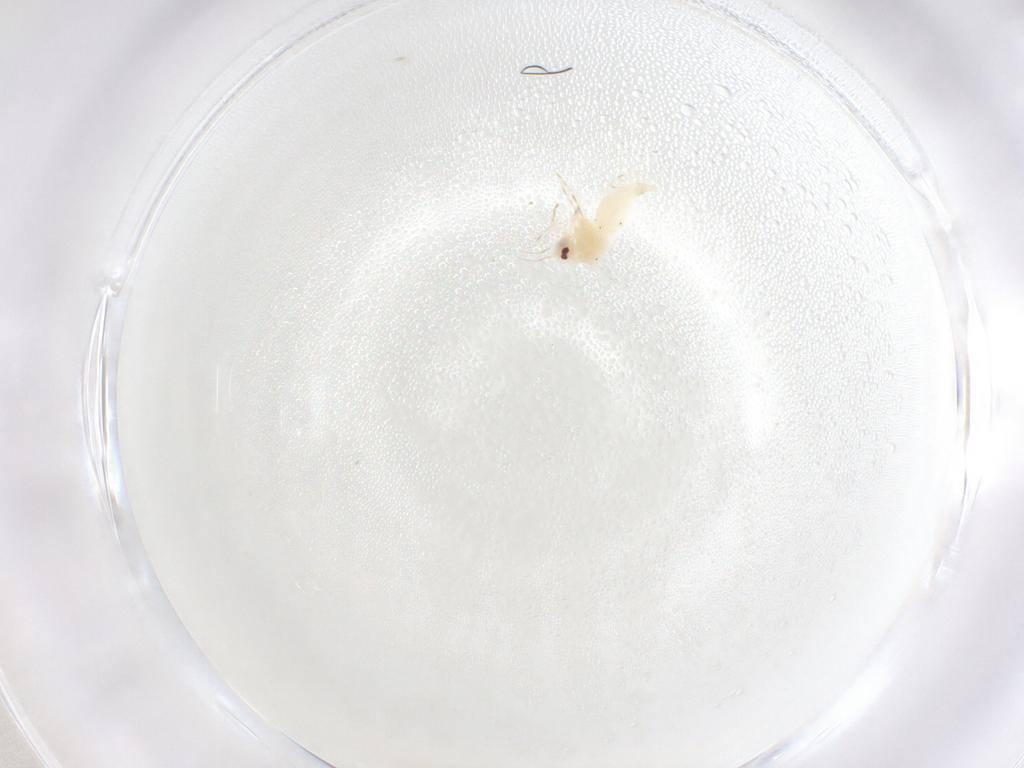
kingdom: Animalia
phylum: Arthropoda
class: Insecta
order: Hemiptera
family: Aleyrodidae
